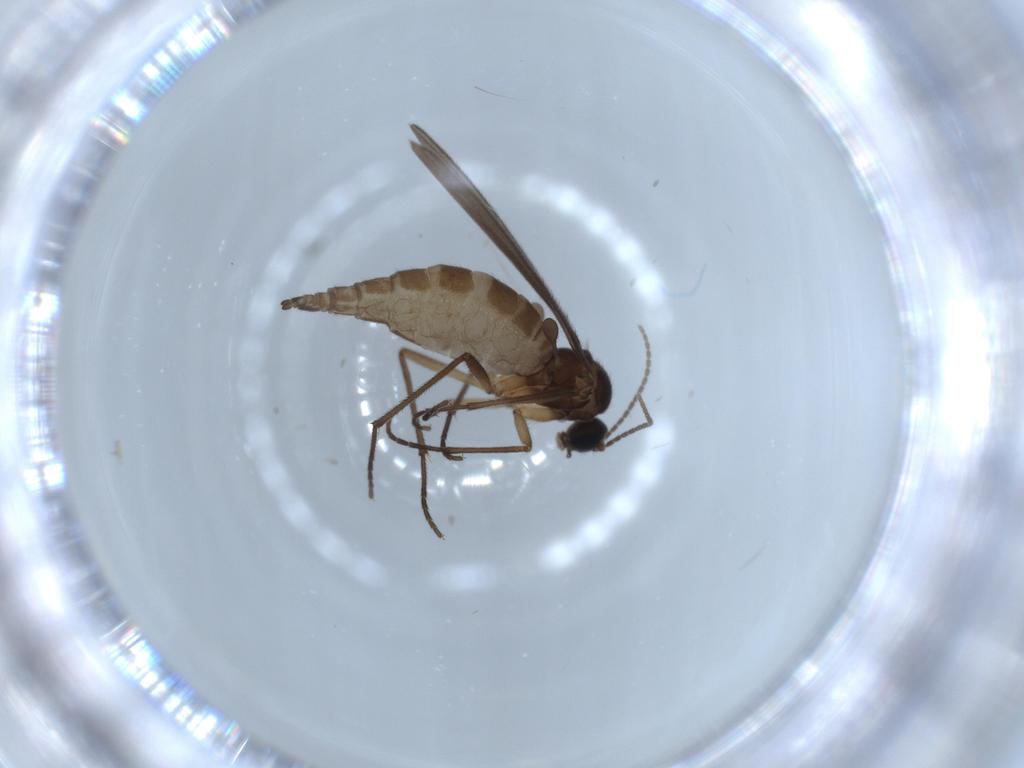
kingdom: Animalia
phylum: Arthropoda
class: Insecta
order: Diptera
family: Sciaridae
